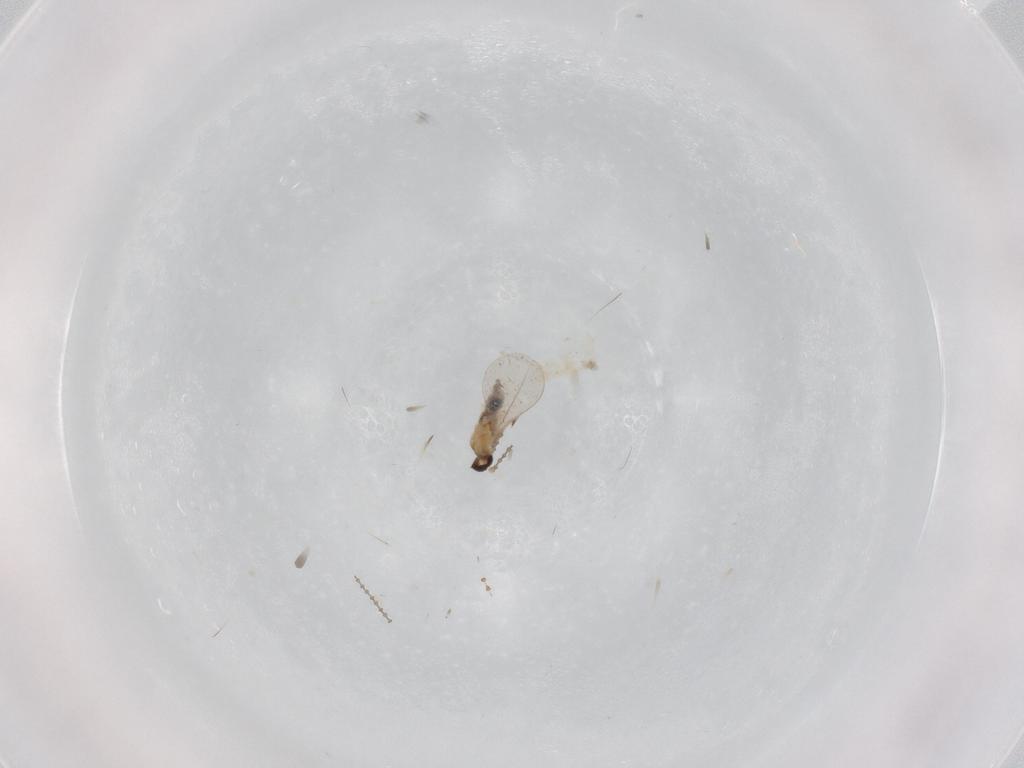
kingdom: Animalia
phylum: Arthropoda
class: Insecta
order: Diptera
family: Cecidomyiidae
